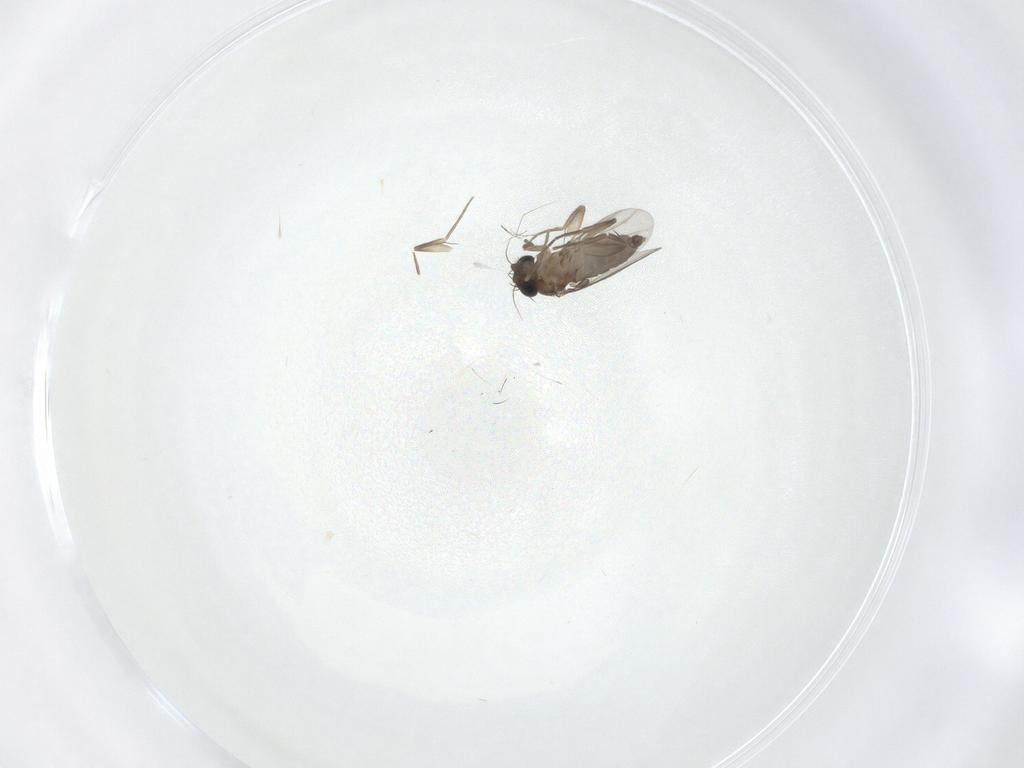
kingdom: Animalia
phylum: Arthropoda
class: Insecta
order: Diptera
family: Phoridae
